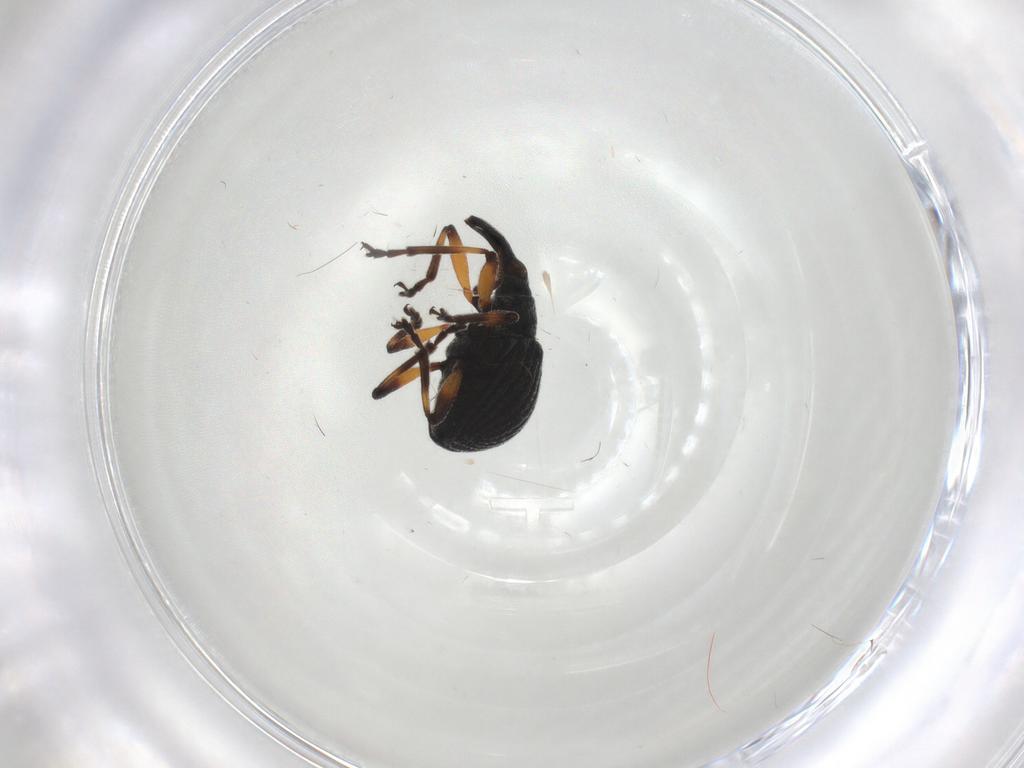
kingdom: Animalia
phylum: Arthropoda
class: Insecta
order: Coleoptera
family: Brentidae
